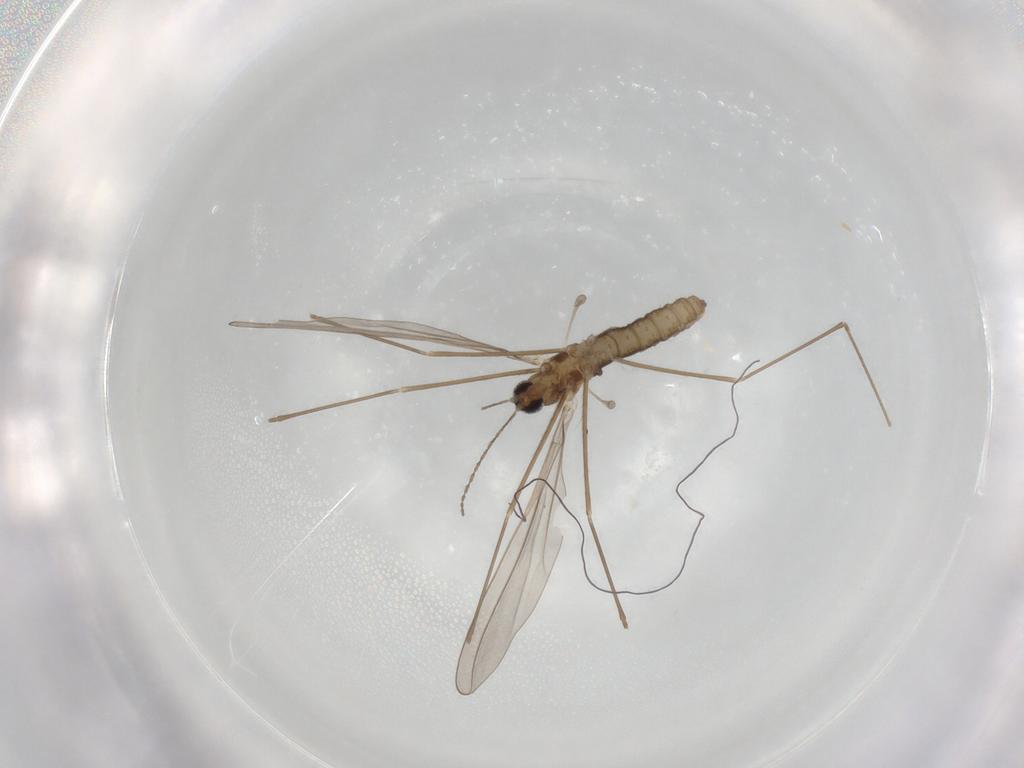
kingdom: Animalia
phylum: Arthropoda
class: Insecta
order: Diptera
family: Cecidomyiidae
